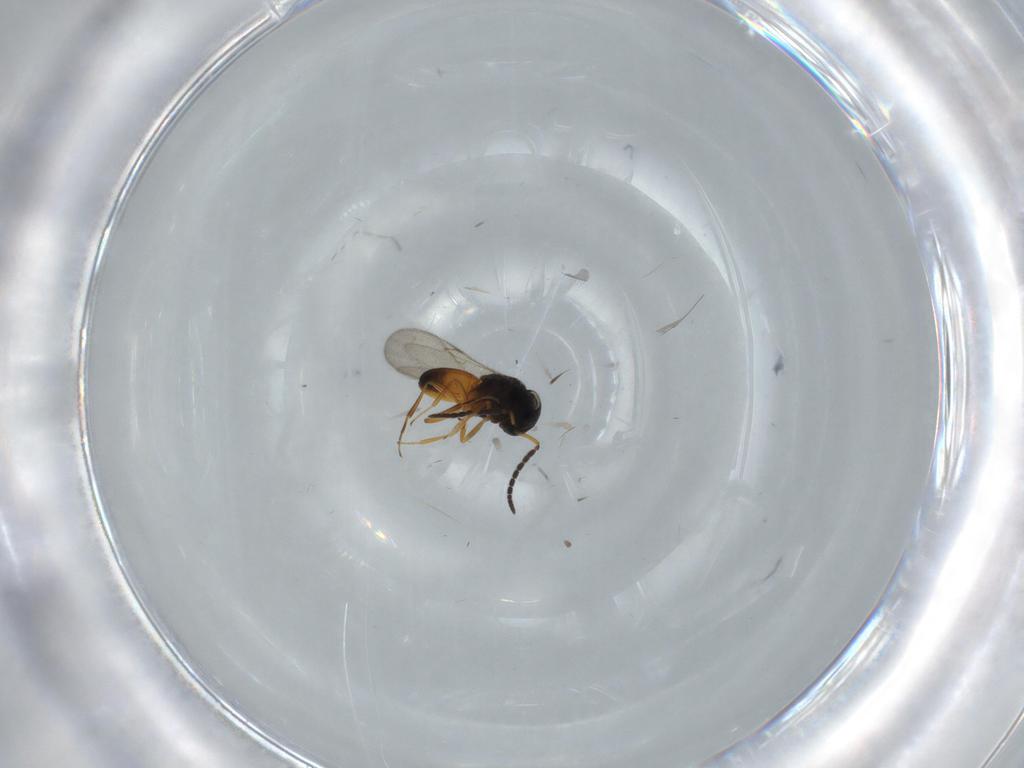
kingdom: Animalia
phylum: Arthropoda
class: Insecta
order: Hymenoptera
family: Scelionidae
